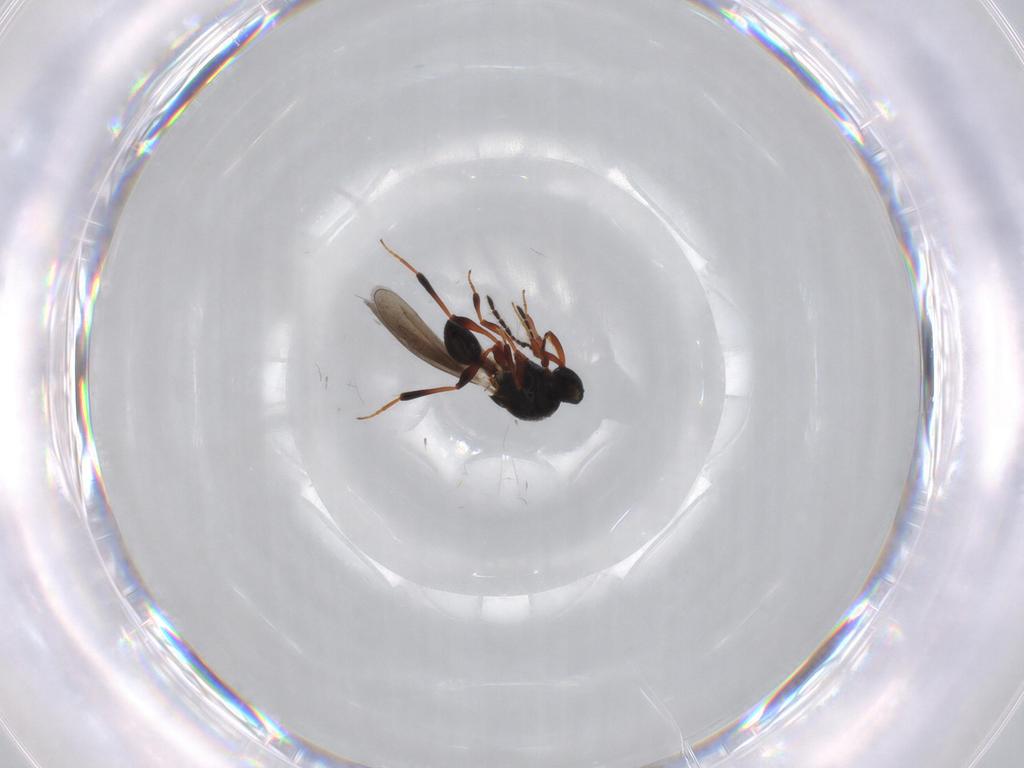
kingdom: Animalia
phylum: Arthropoda
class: Insecta
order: Hymenoptera
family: Platygastridae
